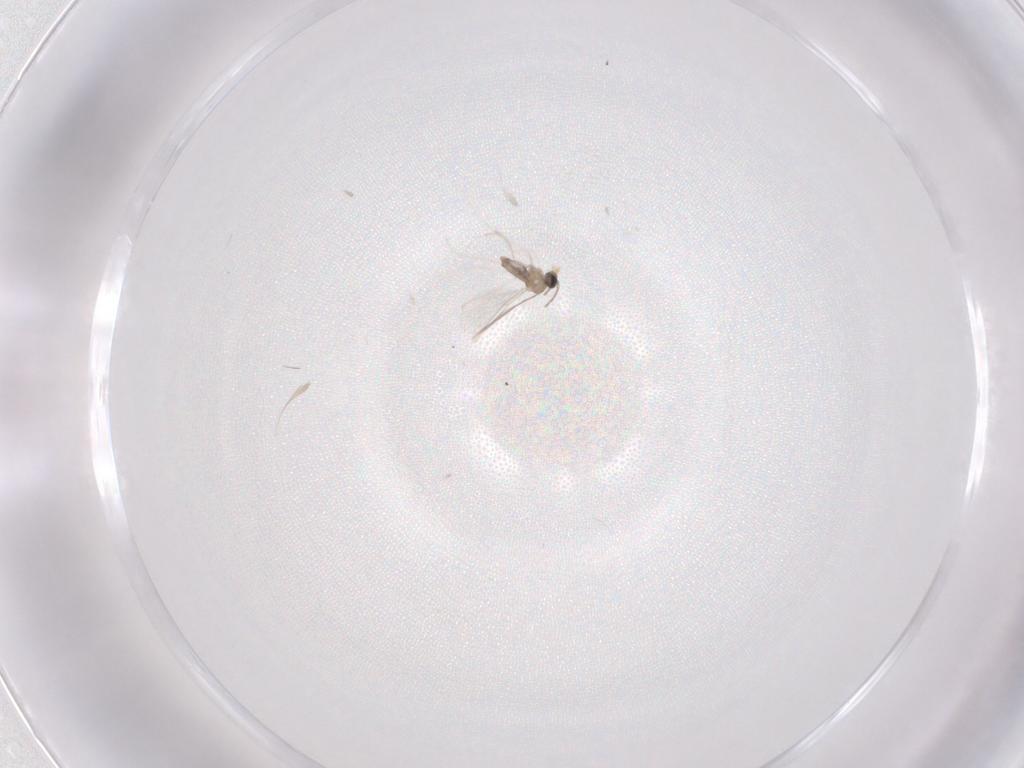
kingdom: Animalia
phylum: Arthropoda
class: Insecta
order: Diptera
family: Cecidomyiidae
